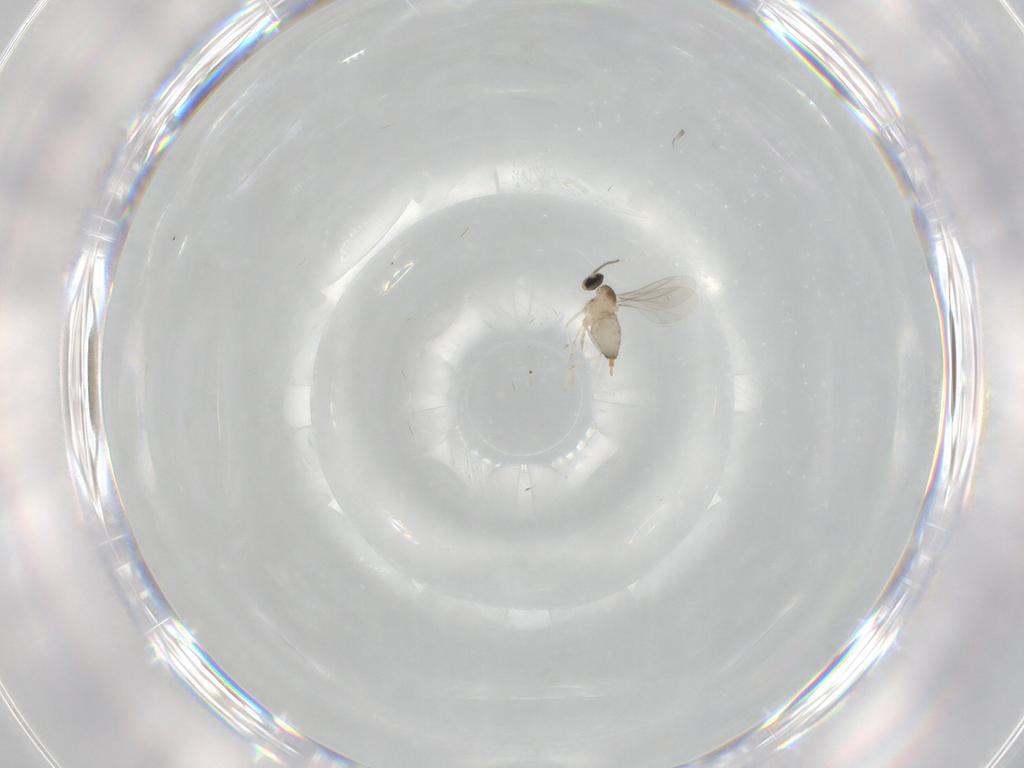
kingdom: Animalia
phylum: Arthropoda
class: Insecta
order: Diptera
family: Cecidomyiidae
